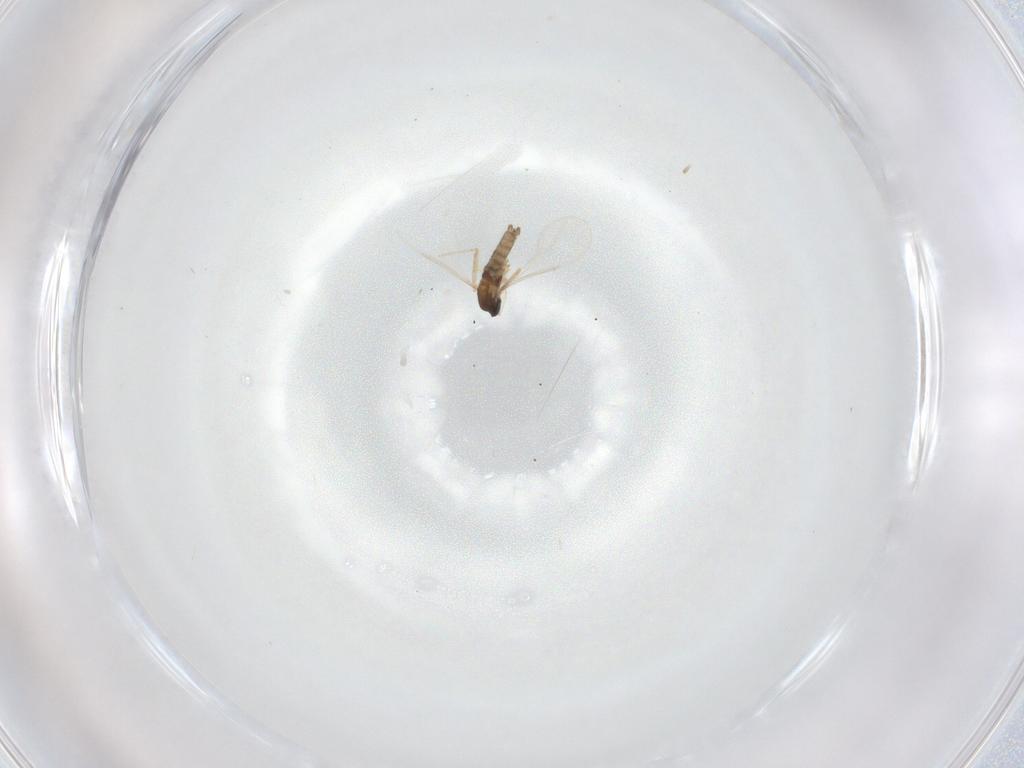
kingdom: Animalia
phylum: Arthropoda
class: Insecta
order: Diptera
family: Cecidomyiidae
